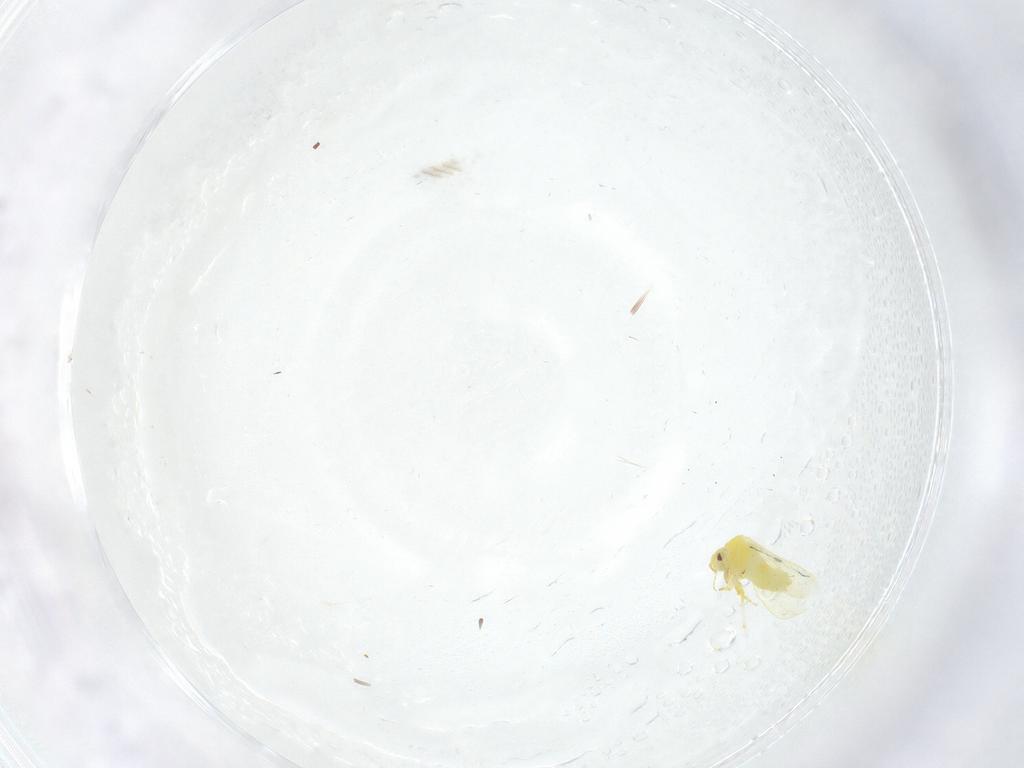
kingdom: Animalia
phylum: Arthropoda
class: Insecta
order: Hemiptera
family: Aleyrodidae
